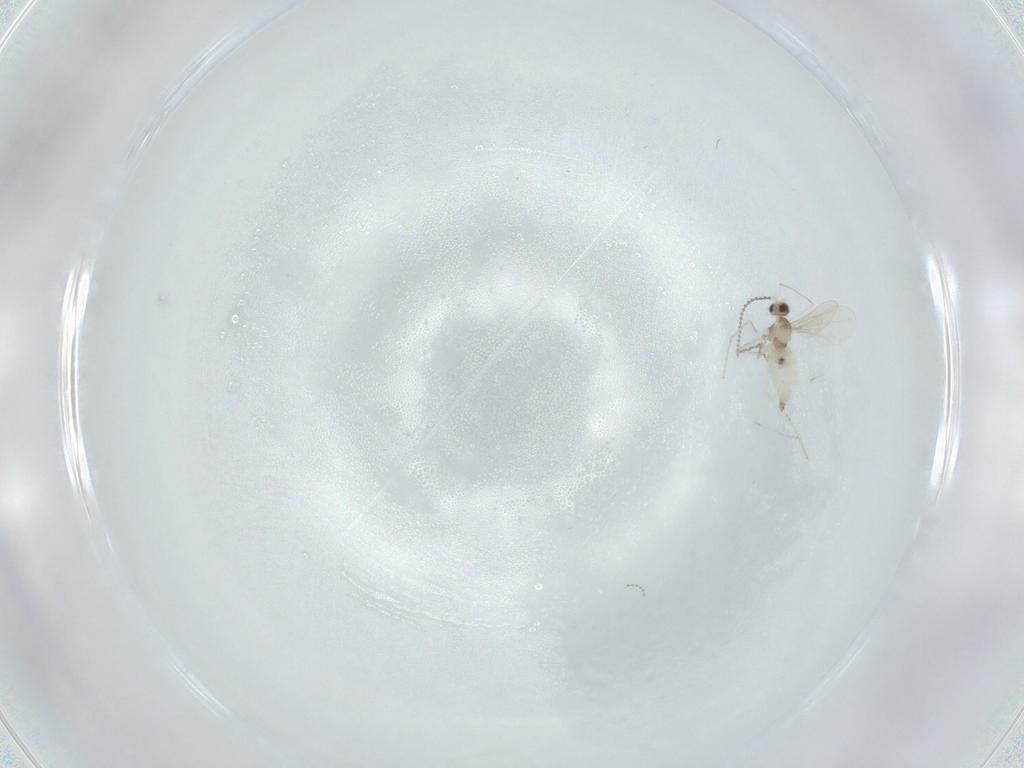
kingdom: Animalia
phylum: Arthropoda
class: Insecta
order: Diptera
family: Cecidomyiidae
